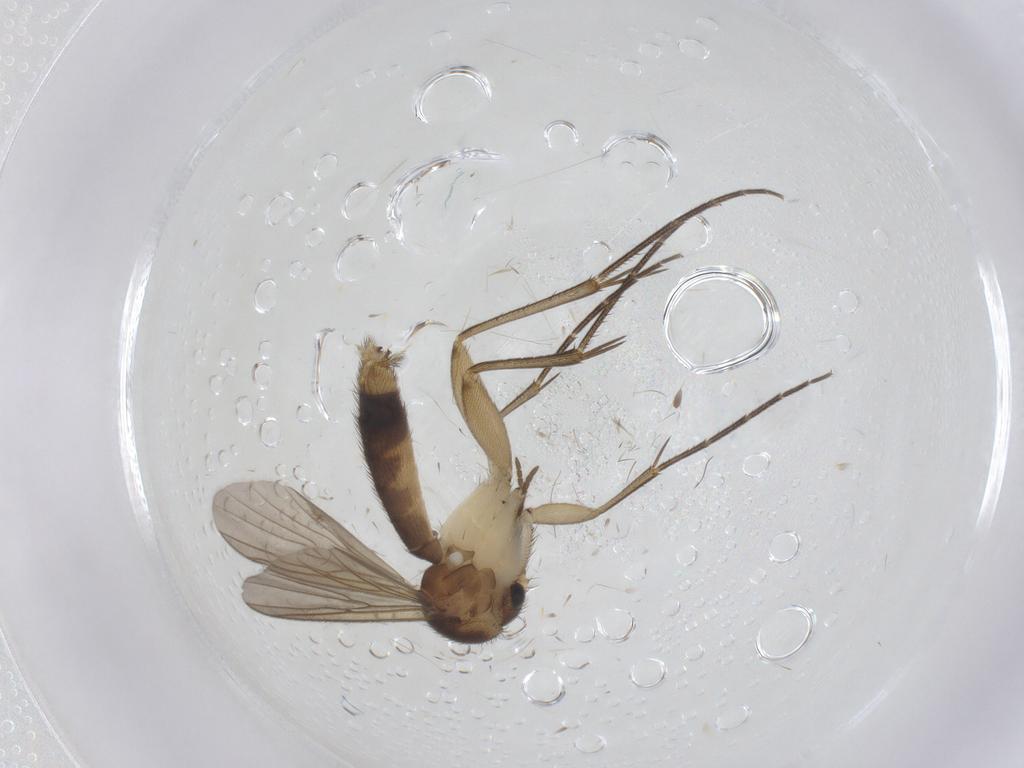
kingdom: Animalia
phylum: Arthropoda
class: Insecta
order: Diptera
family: Mycetophilidae
